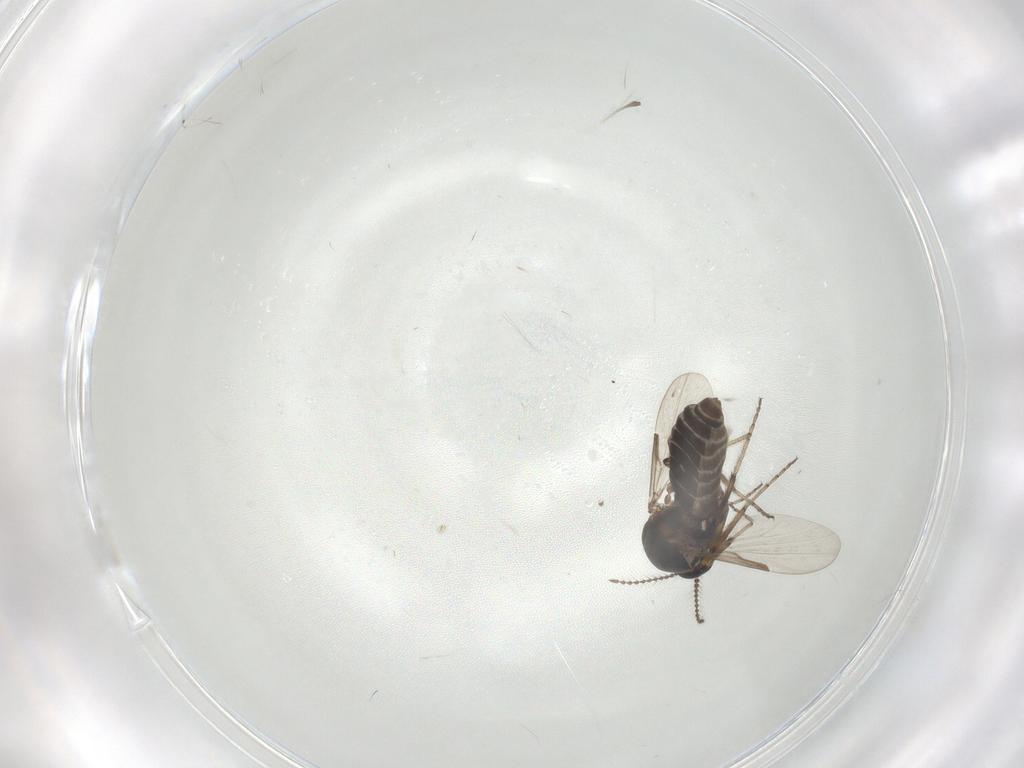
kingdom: Animalia
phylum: Arthropoda
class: Insecta
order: Diptera
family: Ceratopogonidae
